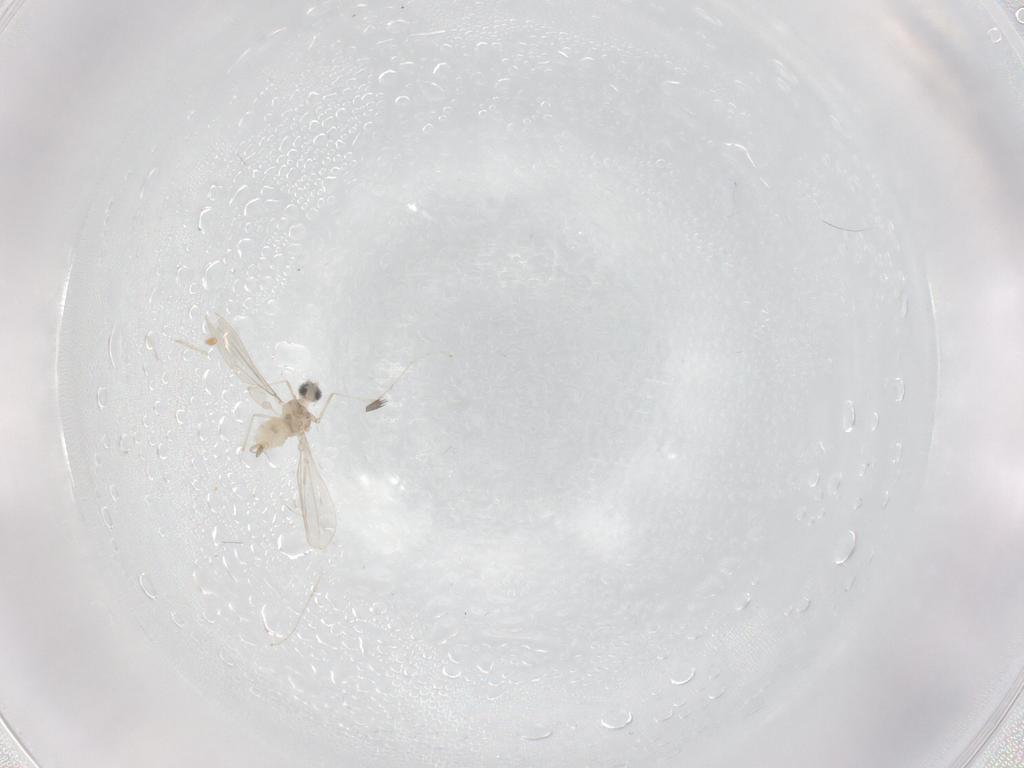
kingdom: Animalia
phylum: Arthropoda
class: Insecta
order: Diptera
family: Cecidomyiidae
